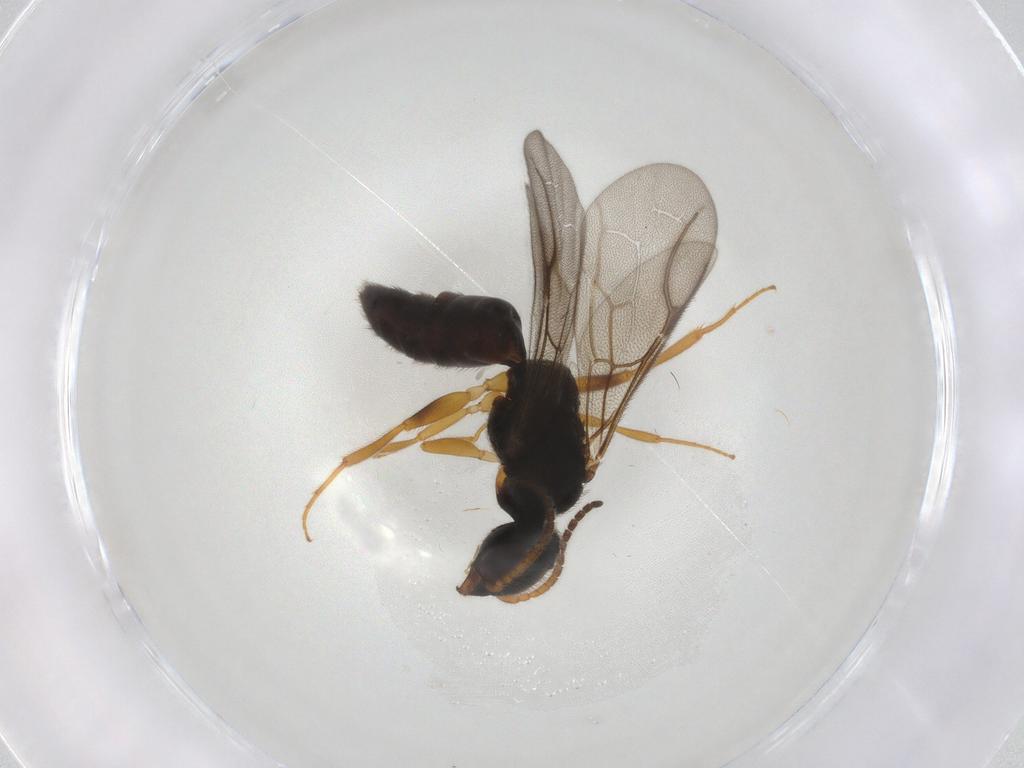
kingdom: Animalia
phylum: Arthropoda
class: Insecta
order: Hymenoptera
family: Bethylidae
